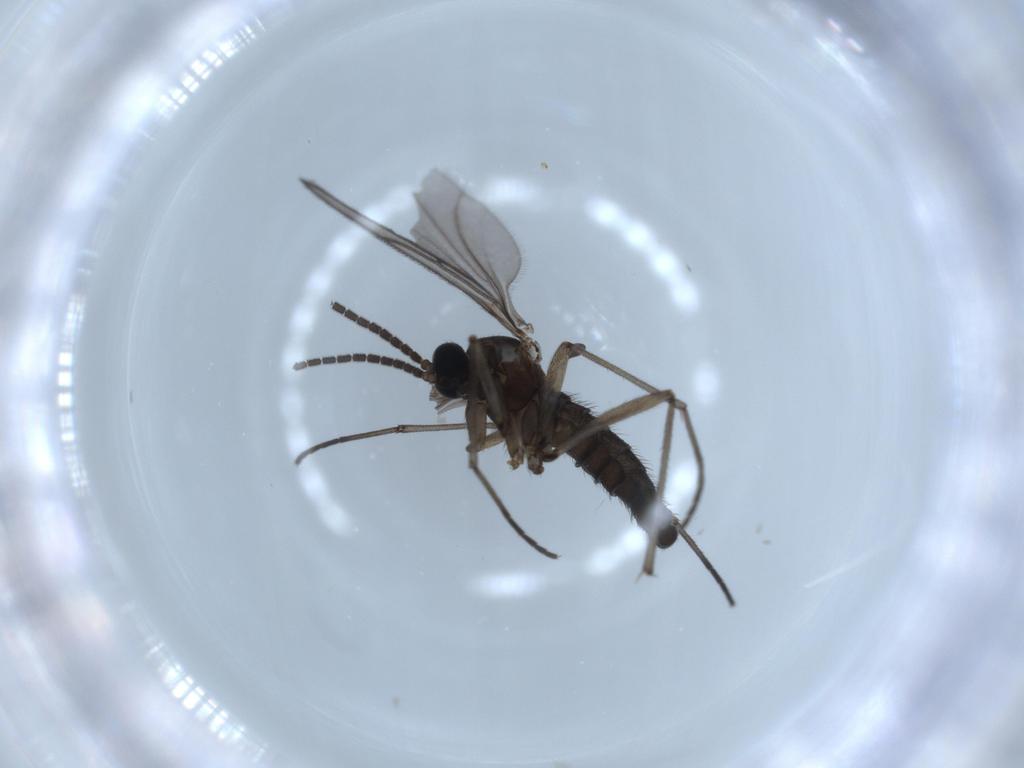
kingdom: Animalia
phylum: Arthropoda
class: Insecta
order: Diptera
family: Sciaridae
